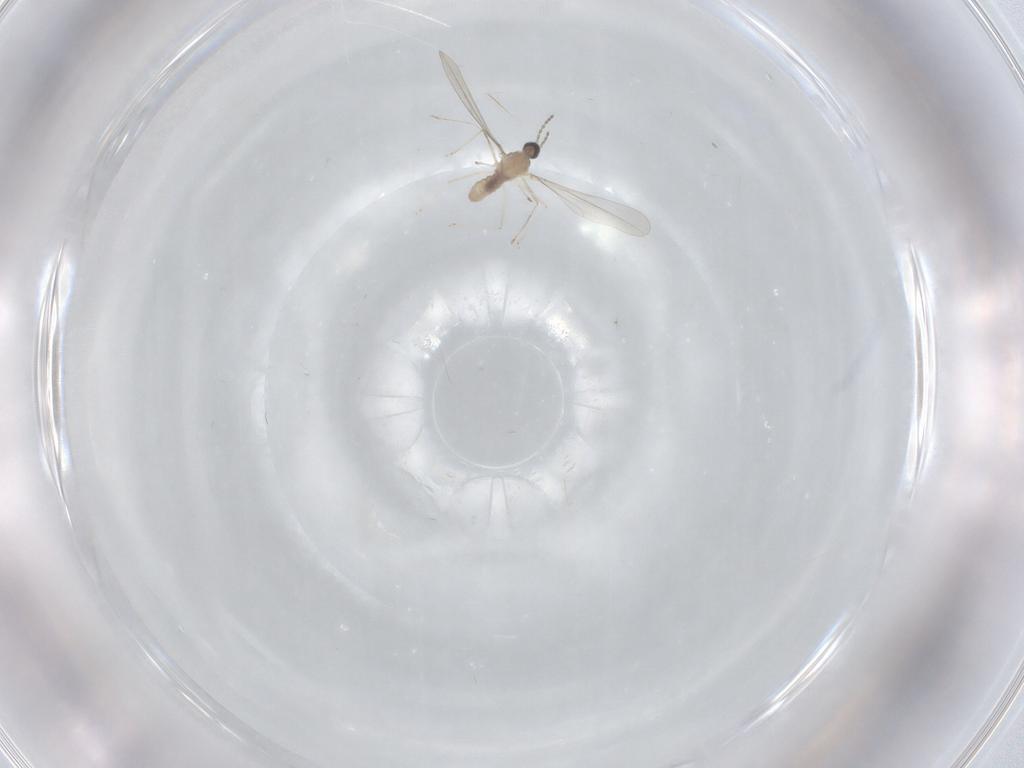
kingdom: Animalia
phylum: Arthropoda
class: Insecta
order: Diptera
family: Cecidomyiidae
